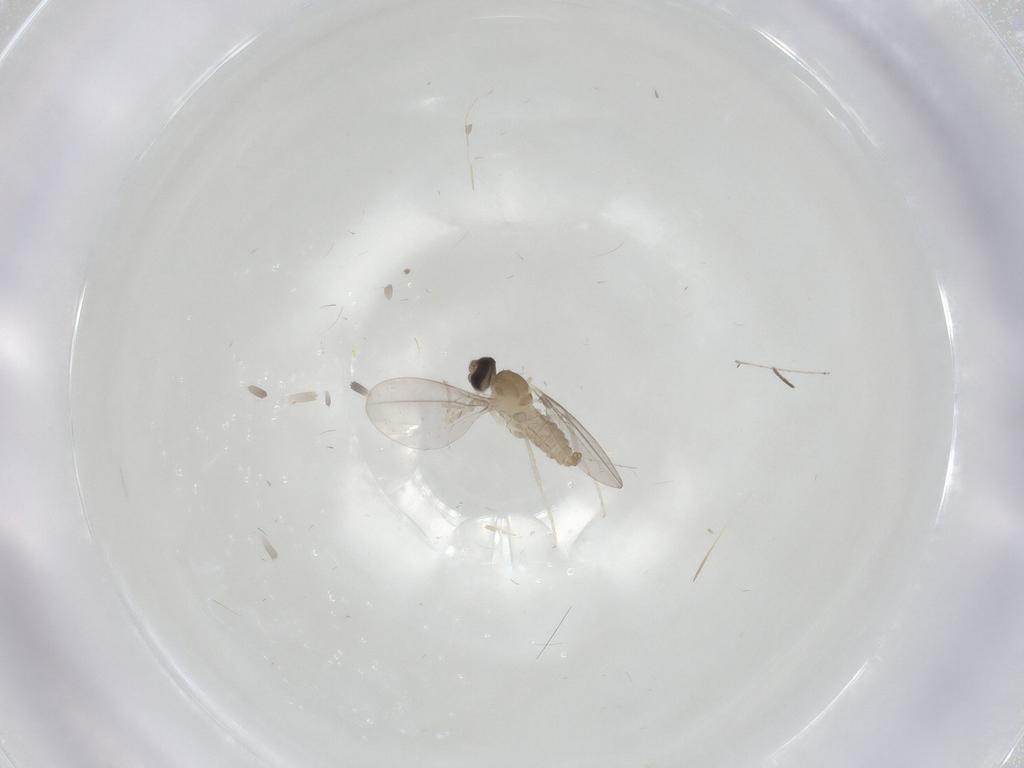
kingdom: Animalia
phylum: Arthropoda
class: Insecta
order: Diptera
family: Cecidomyiidae
